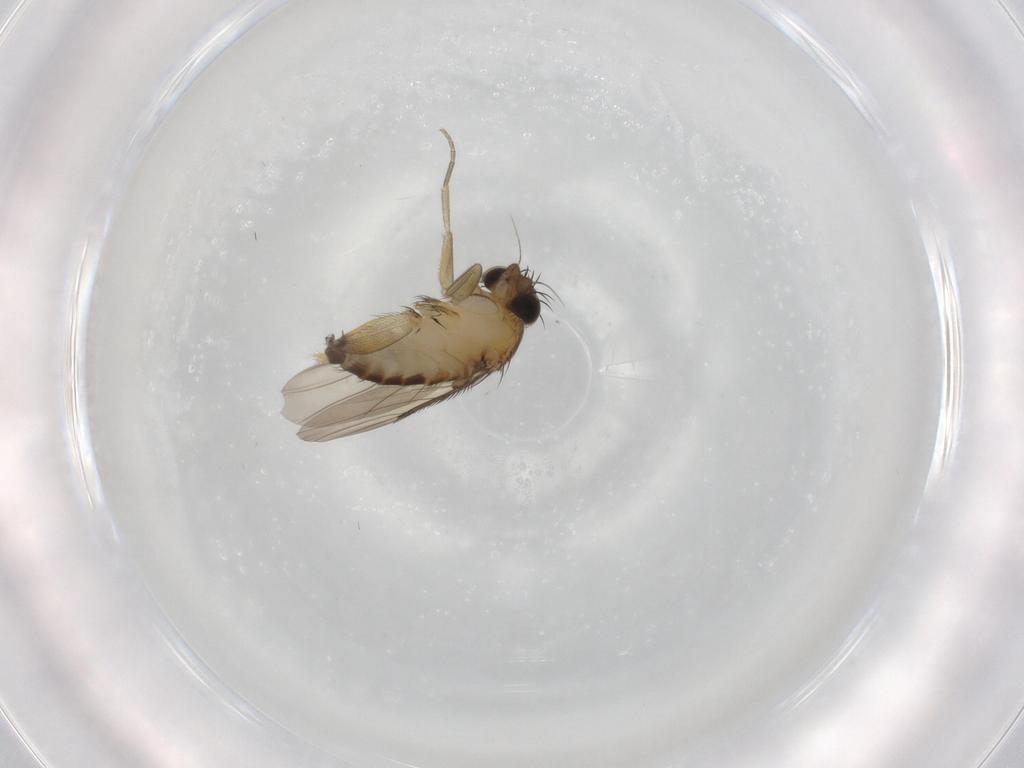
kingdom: Animalia
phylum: Arthropoda
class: Insecta
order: Diptera
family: Phoridae
